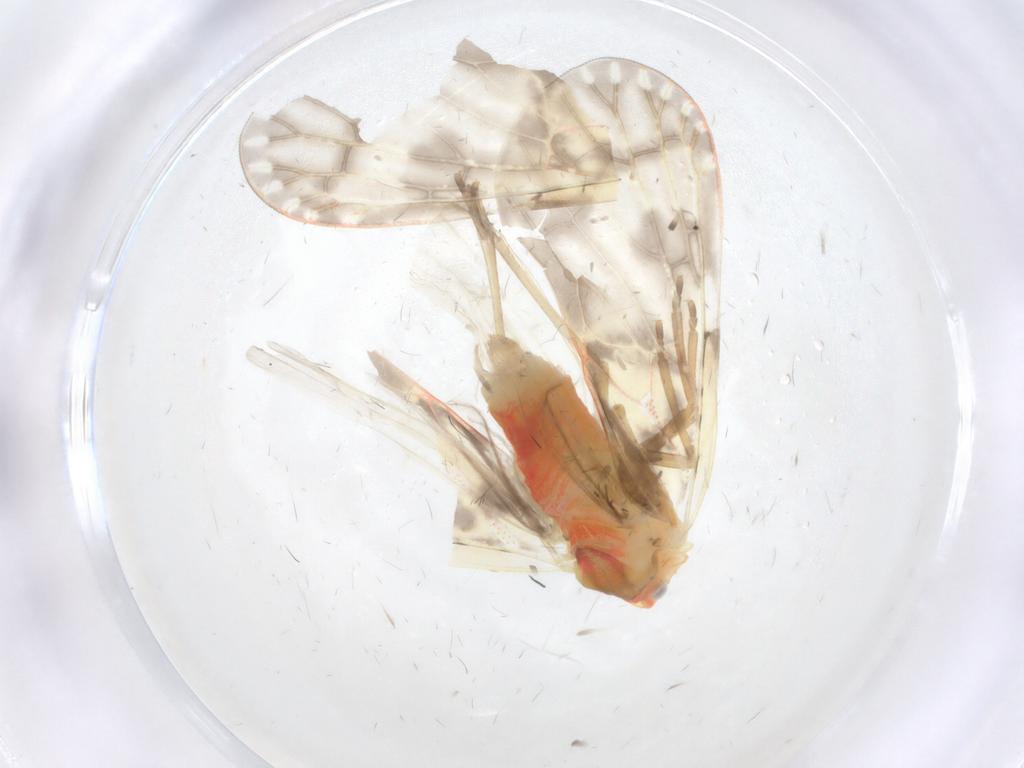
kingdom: Animalia
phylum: Arthropoda
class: Insecta
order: Hemiptera
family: Derbidae
